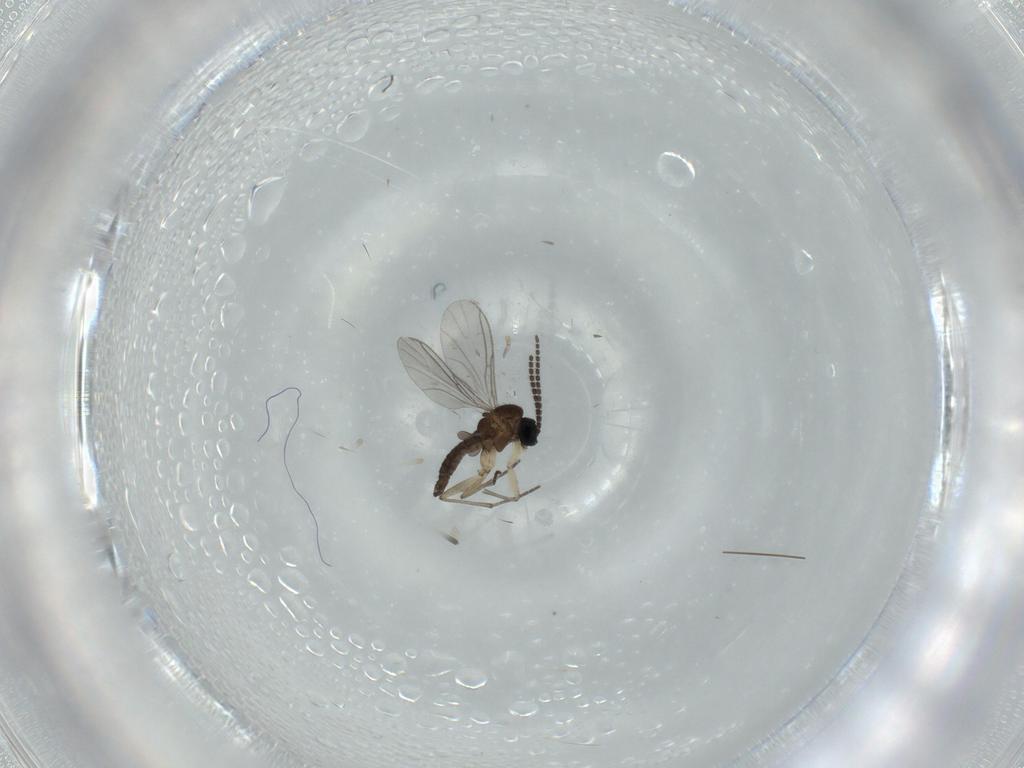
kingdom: Animalia
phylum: Arthropoda
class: Insecta
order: Diptera
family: Sciaridae
